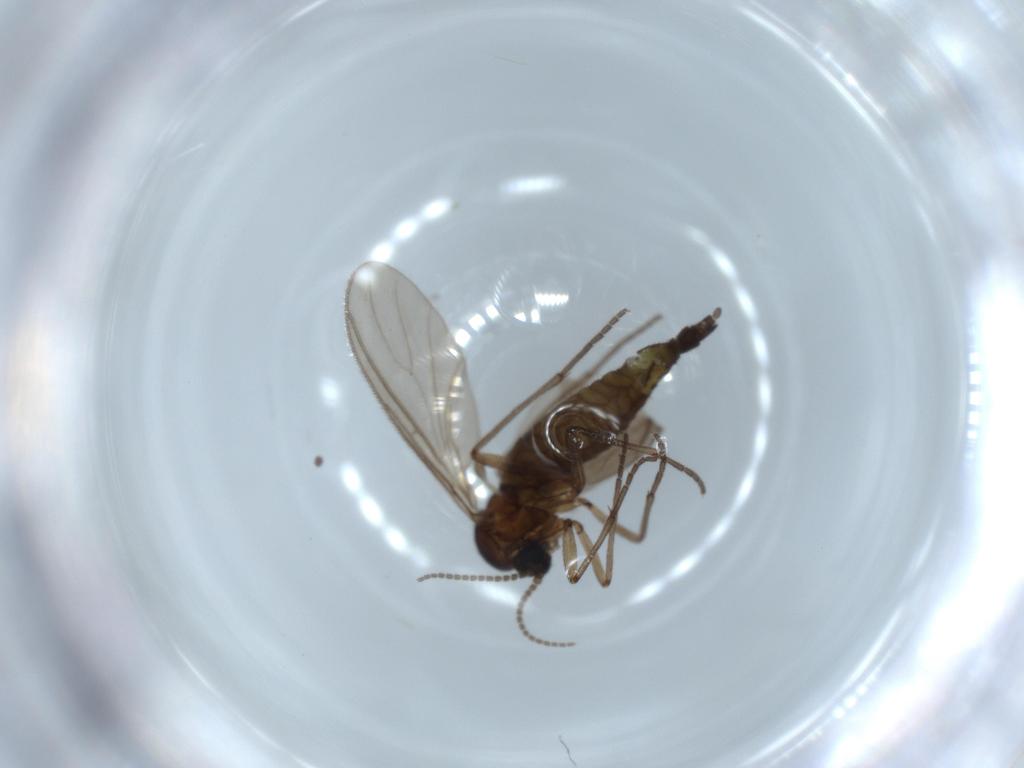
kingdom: Animalia
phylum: Arthropoda
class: Insecta
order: Diptera
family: Sciaridae
